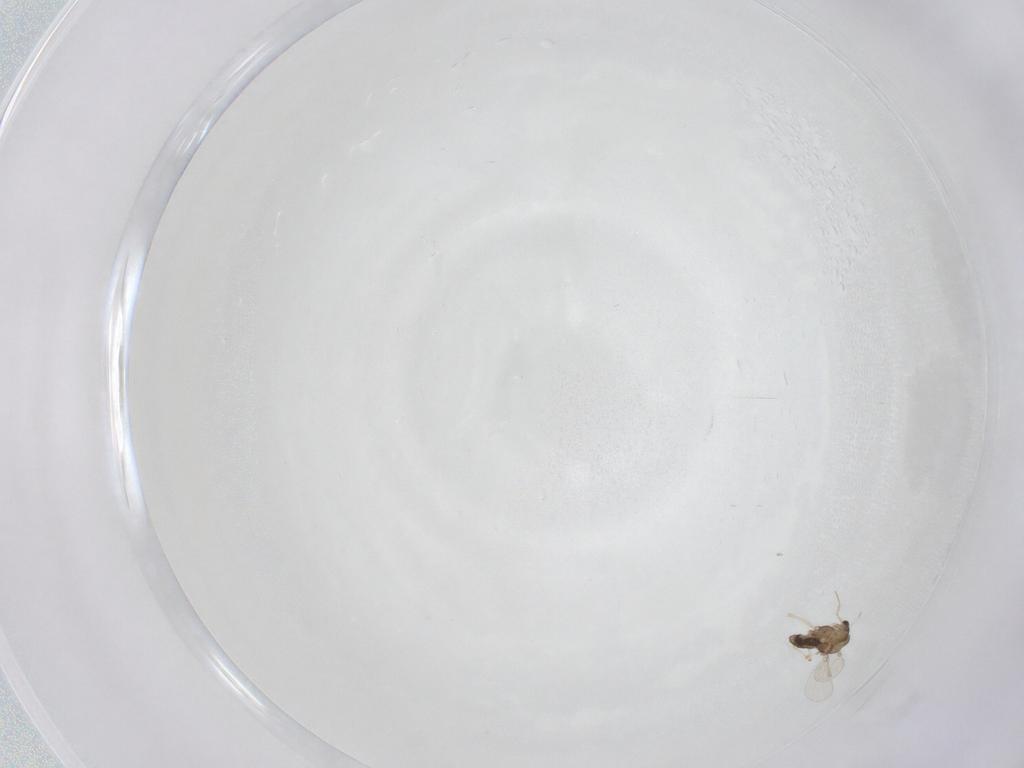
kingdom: Animalia
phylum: Arthropoda
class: Insecta
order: Diptera
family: Chironomidae
